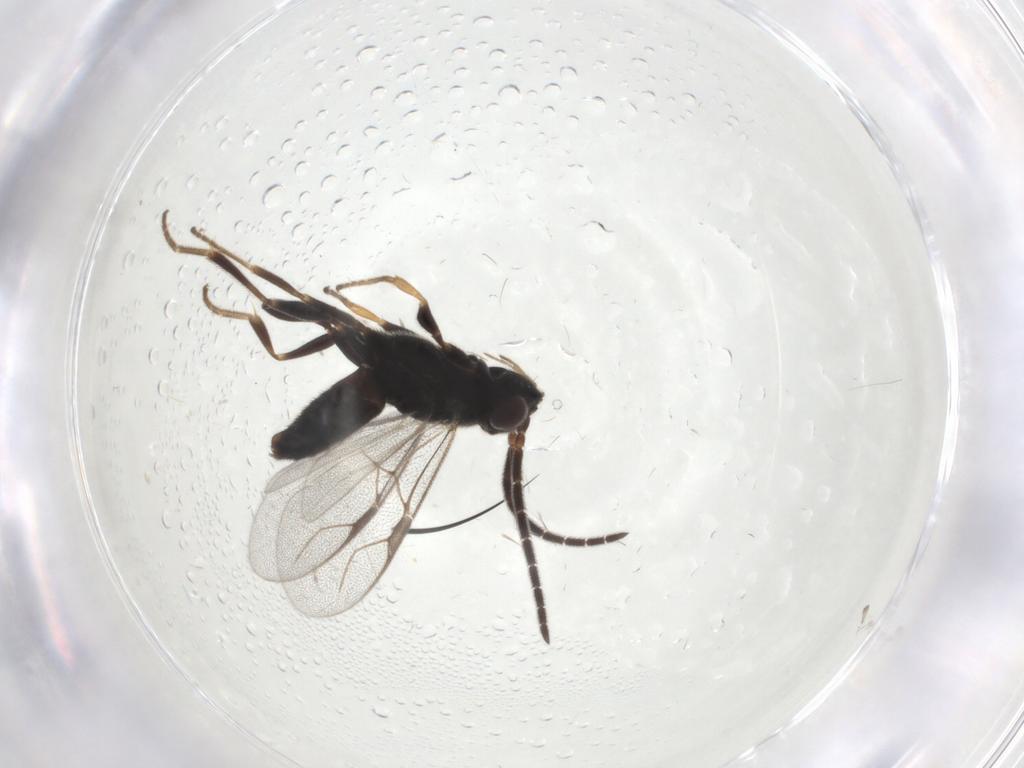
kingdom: Animalia
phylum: Arthropoda
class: Insecta
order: Hymenoptera
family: Dryinidae
